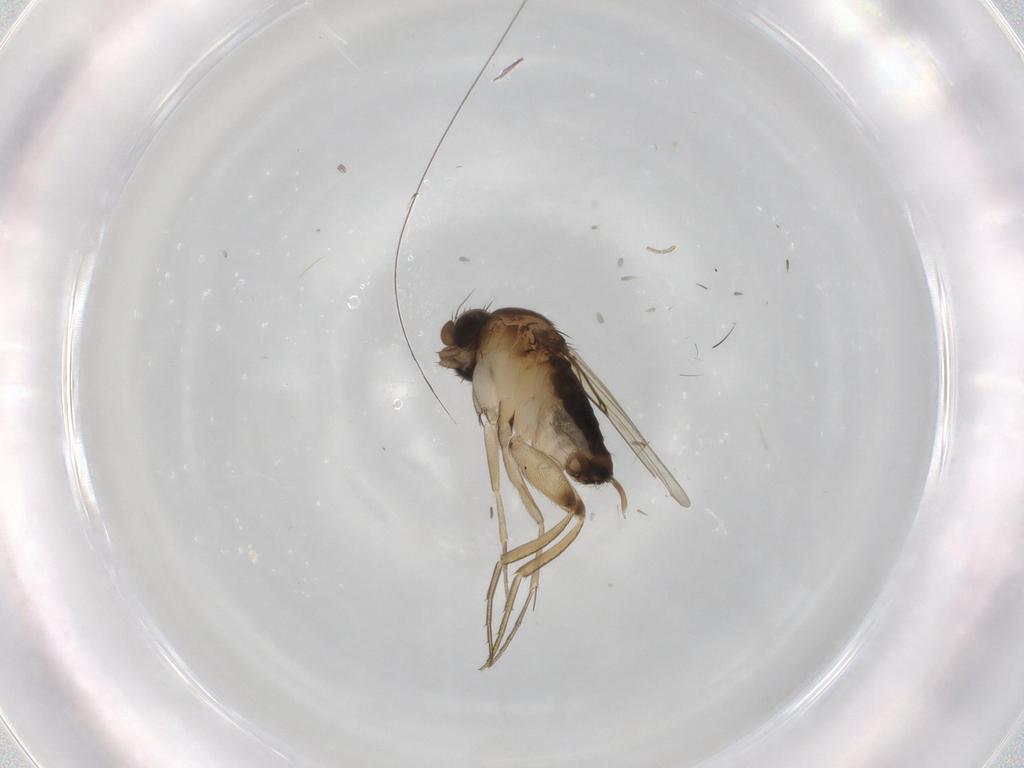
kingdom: Animalia
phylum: Arthropoda
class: Insecta
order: Diptera
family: Phoridae
